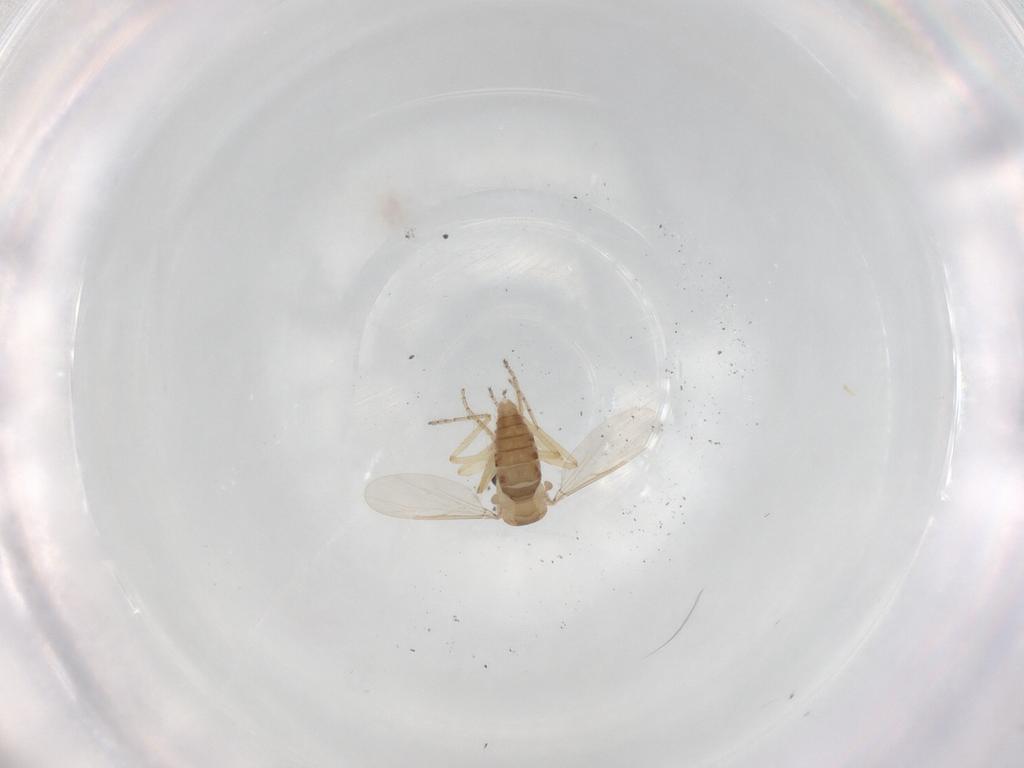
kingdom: Animalia
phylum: Arthropoda
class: Insecta
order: Diptera
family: Ceratopogonidae
